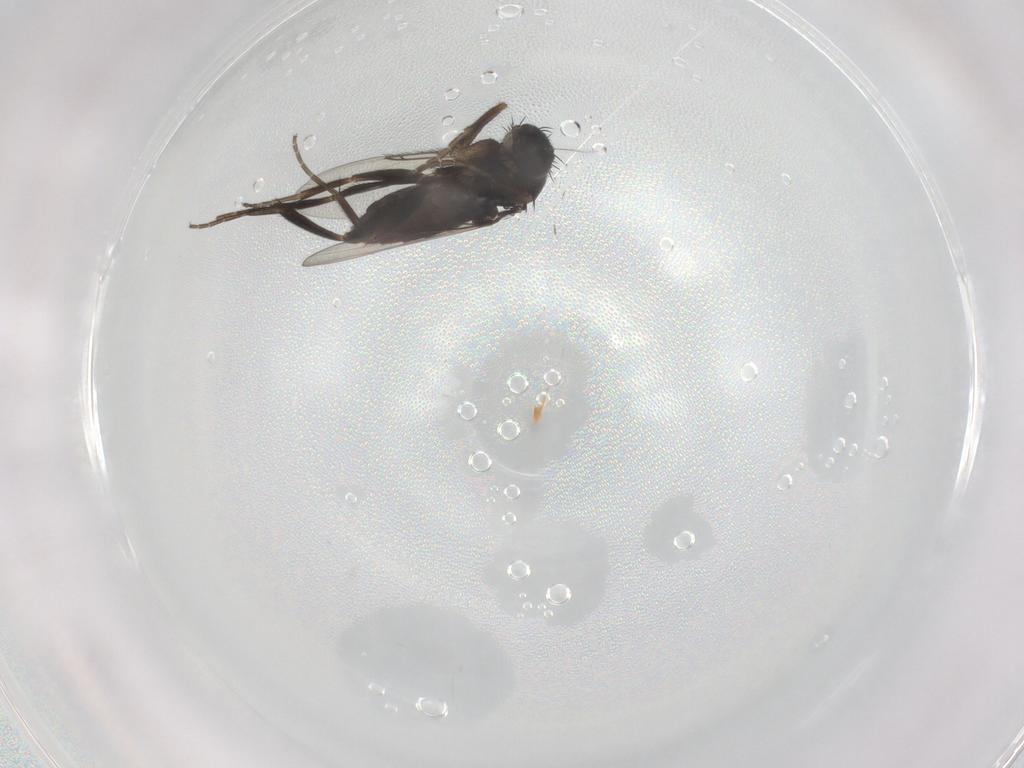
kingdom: Animalia
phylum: Arthropoda
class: Insecta
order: Diptera
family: Phoridae
